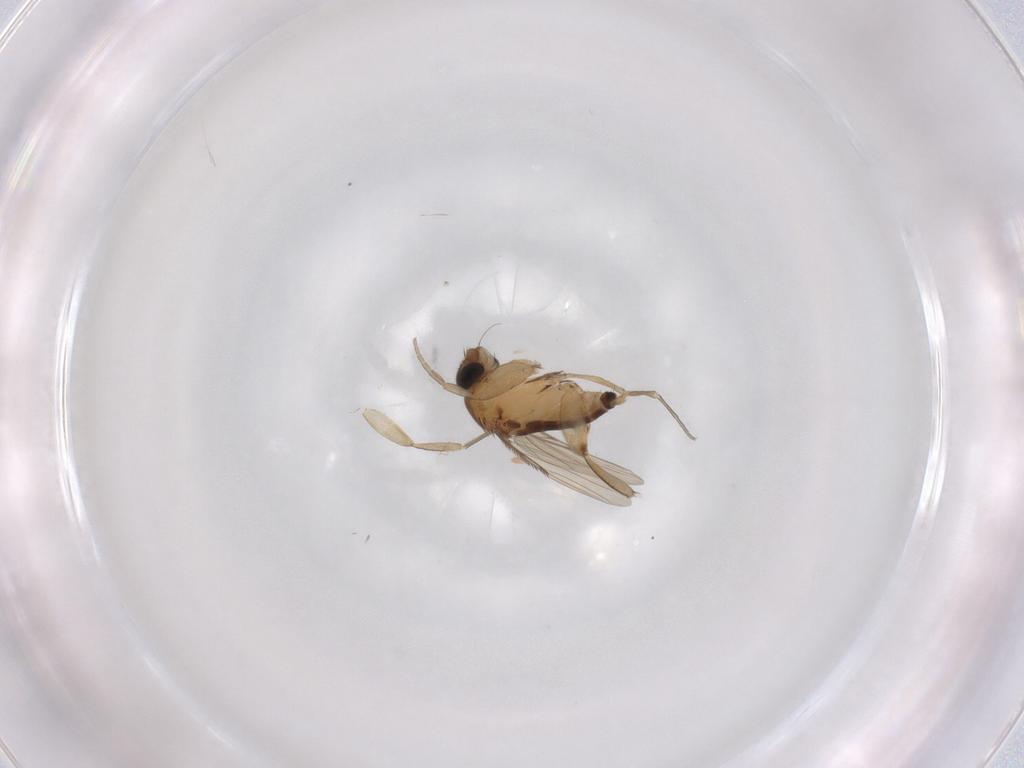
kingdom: Animalia
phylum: Arthropoda
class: Insecta
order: Diptera
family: Phoridae
